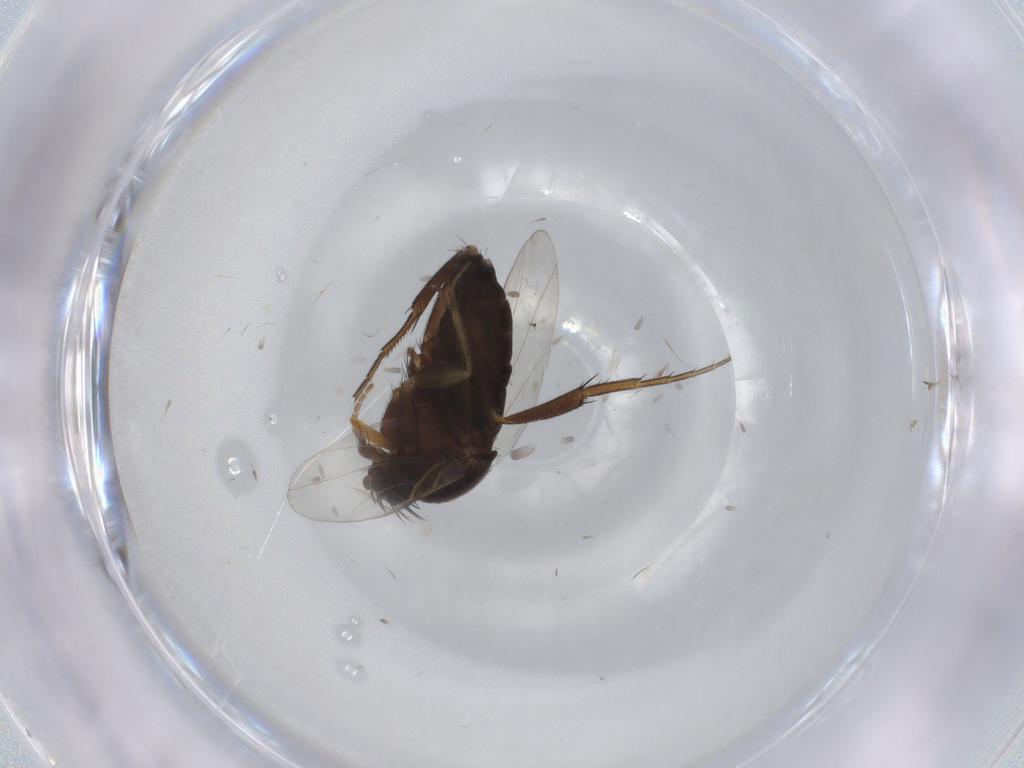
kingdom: Animalia
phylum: Arthropoda
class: Insecta
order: Diptera
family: Phoridae
